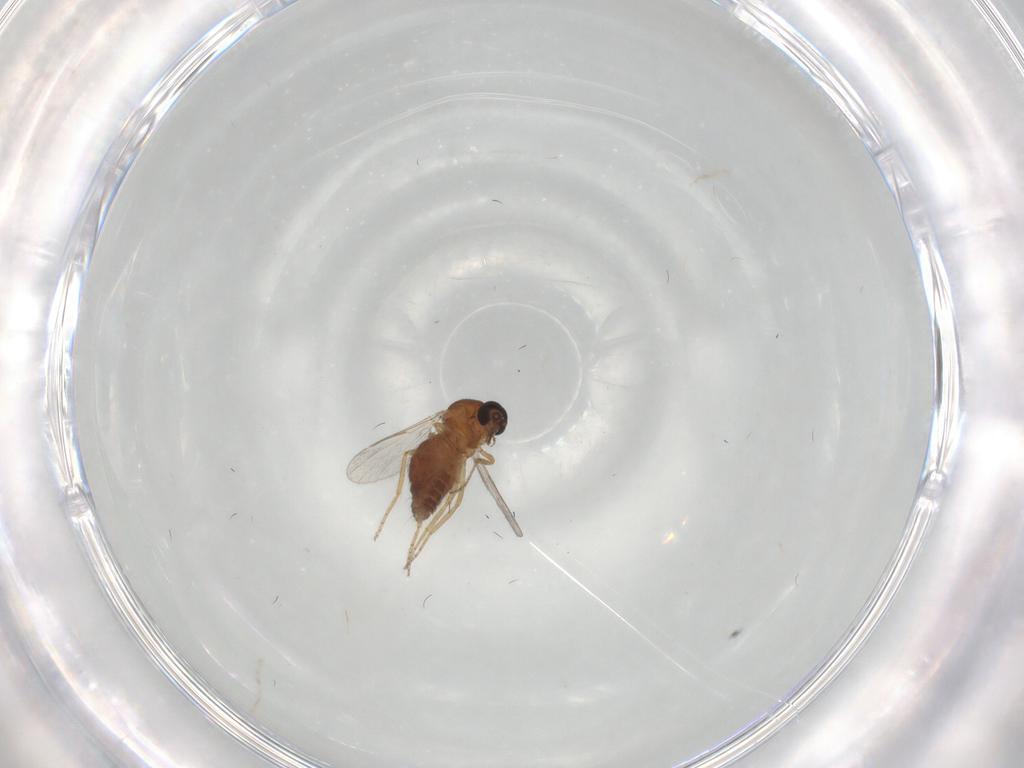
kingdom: Animalia
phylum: Arthropoda
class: Insecta
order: Diptera
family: Ceratopogonidae
